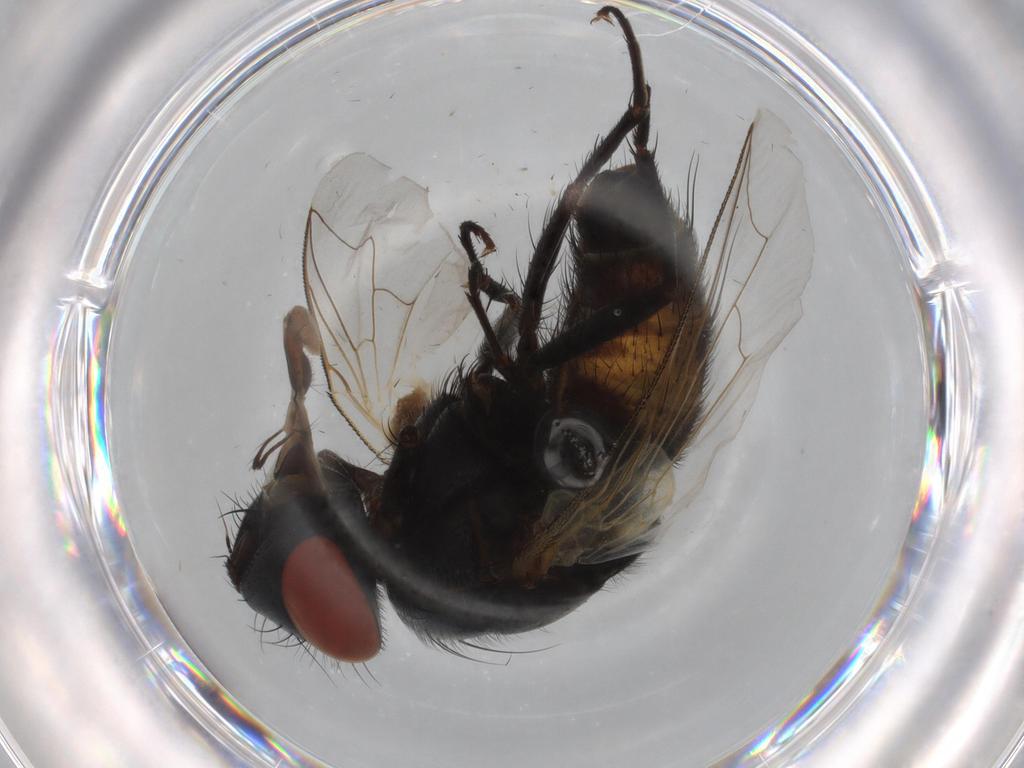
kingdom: Animalia
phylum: Arthropoda
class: Insecta
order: Diptera
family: Sarcophagidae
